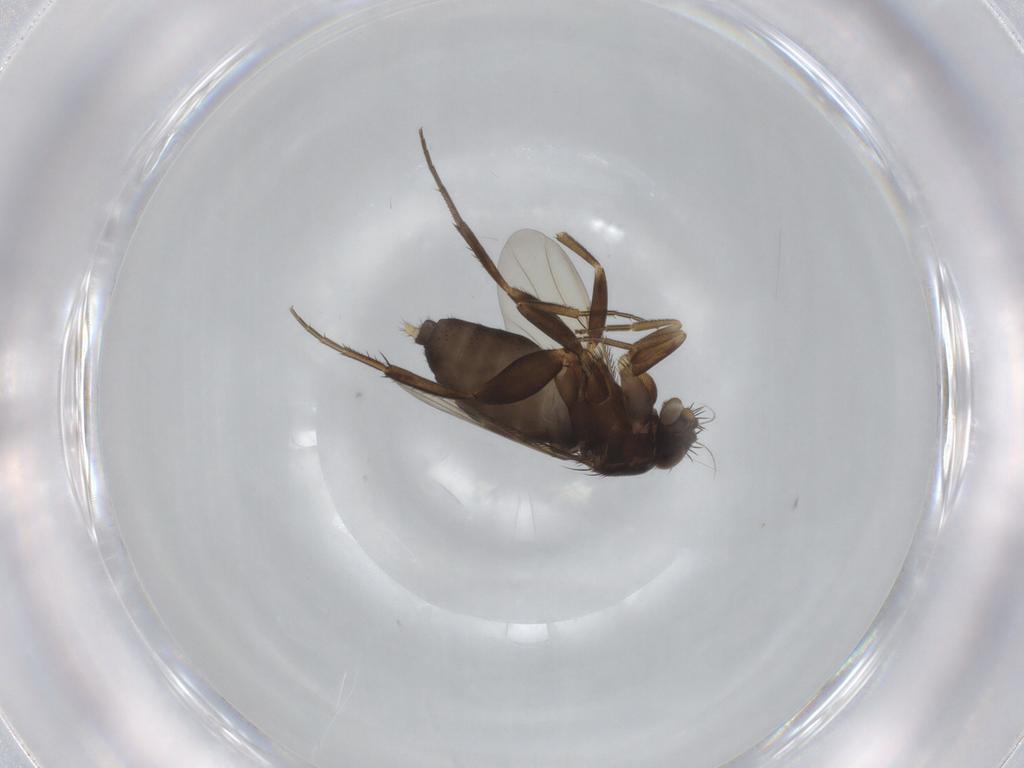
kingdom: Animalia
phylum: Arthropoda
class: Insecta
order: Diptera
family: Phoridae
